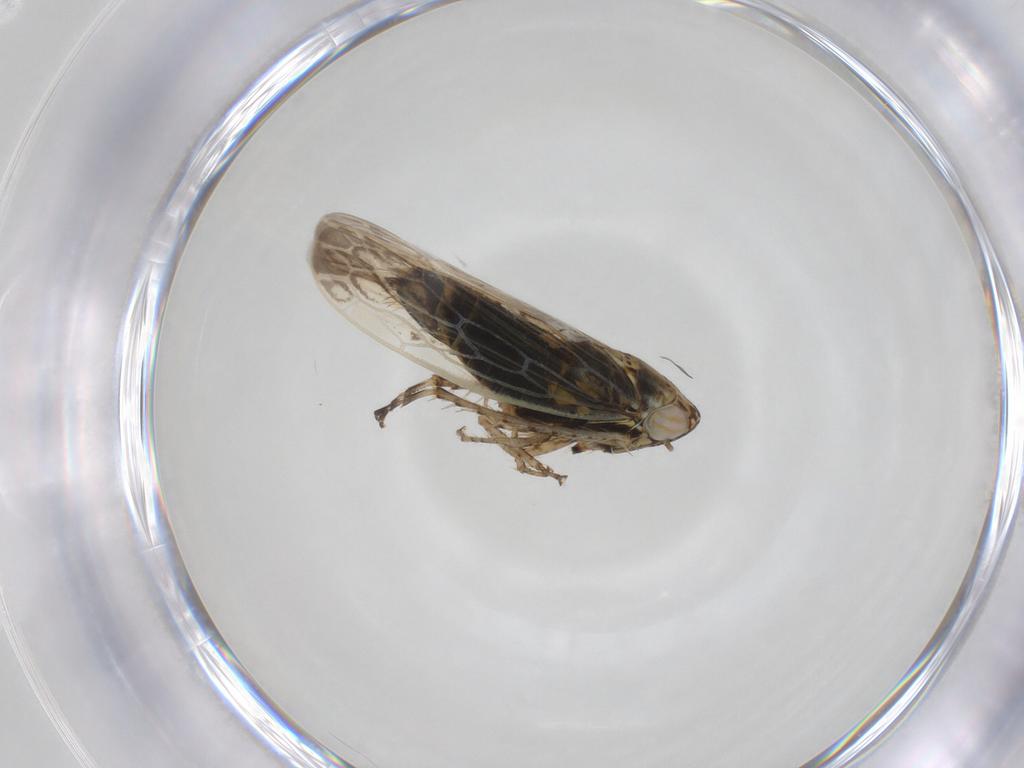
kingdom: Animalia
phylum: Arthropoda
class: Insecta
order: Hemiptera
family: Cicadellidae
